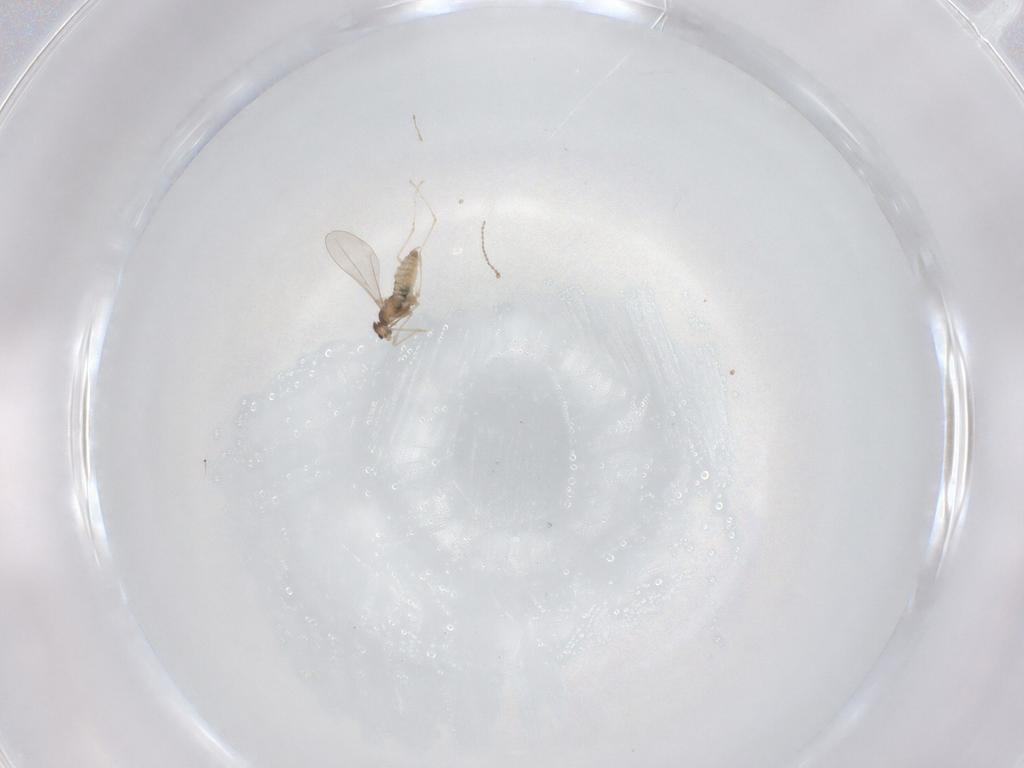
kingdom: Animalia
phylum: Arthropoda
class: Insecta
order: Diptera
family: Cecidomyiidae
